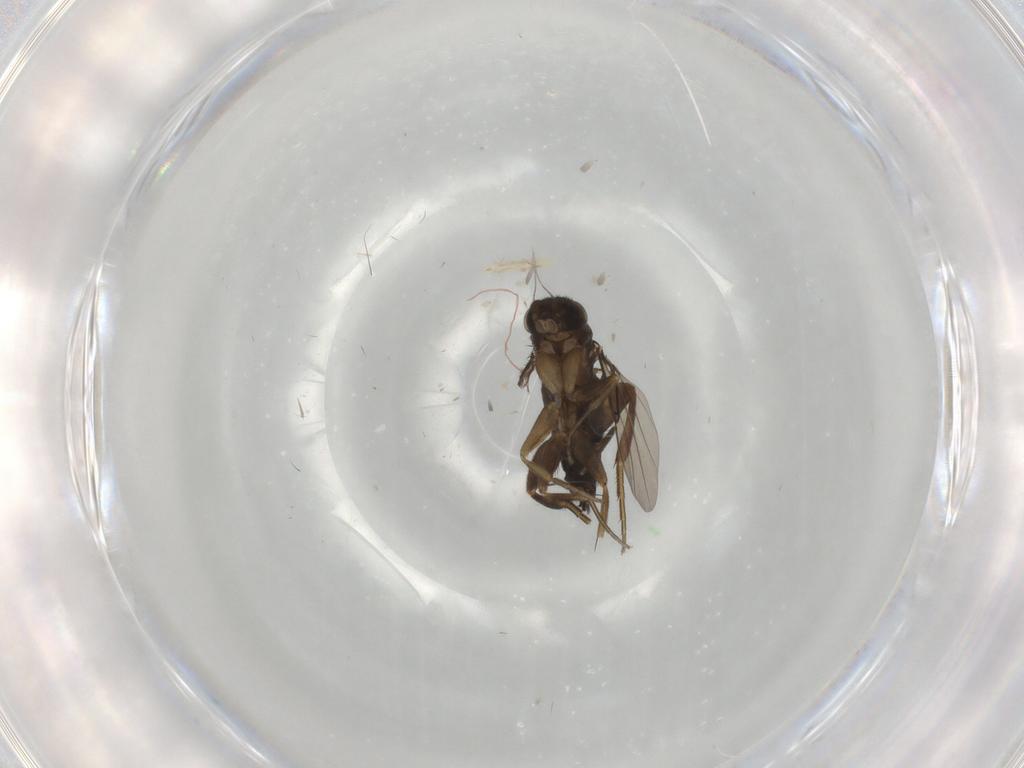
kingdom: Animalia
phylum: Arthropoda
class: Insecta
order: Diptera
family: Phoridae
